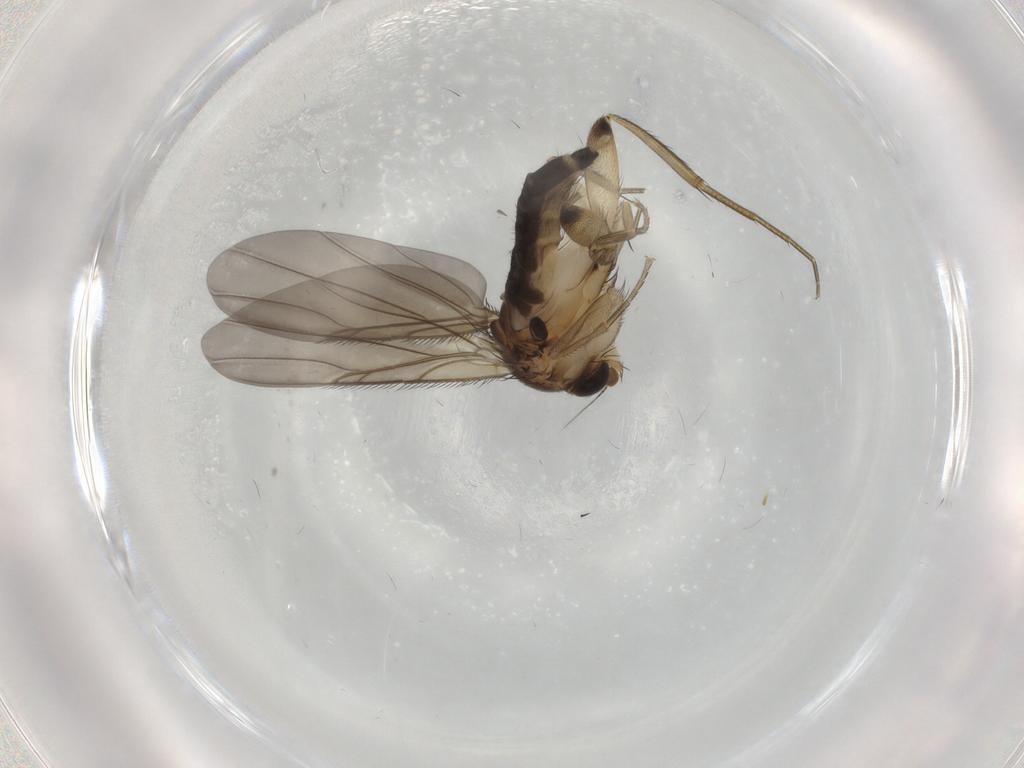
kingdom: Animalia
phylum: Arthropoda
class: Insecta
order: Diptera
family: Phoridae
